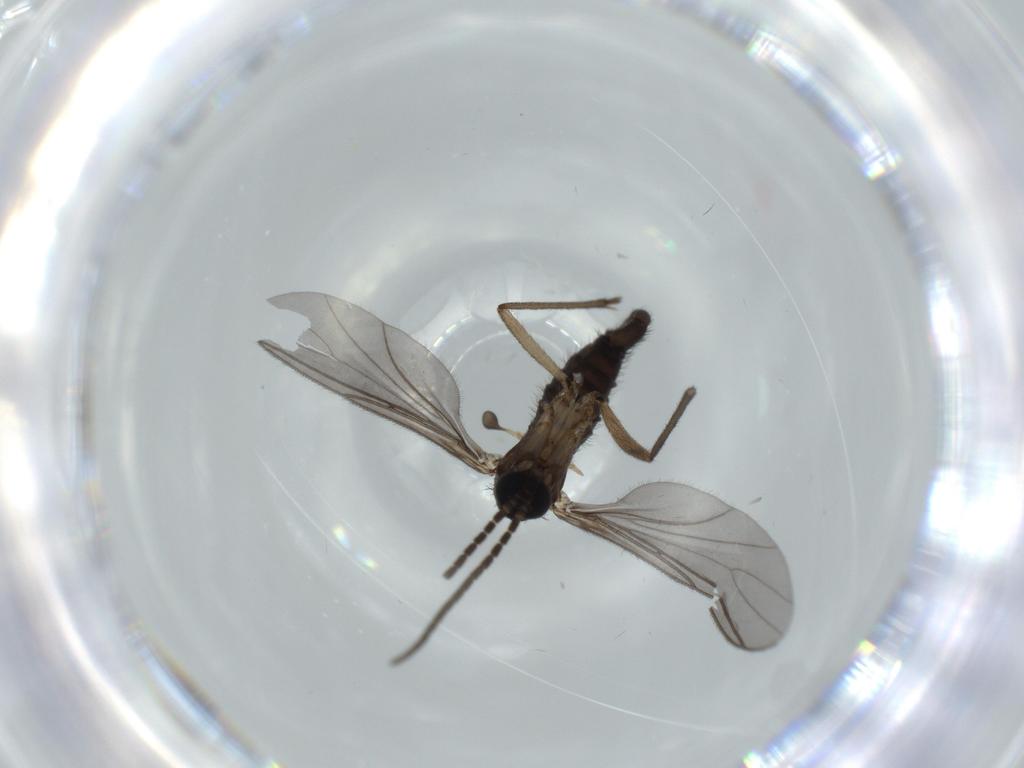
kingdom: Animalia
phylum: Arthropoda
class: Insecta
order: Diptera
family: Sciaridae
